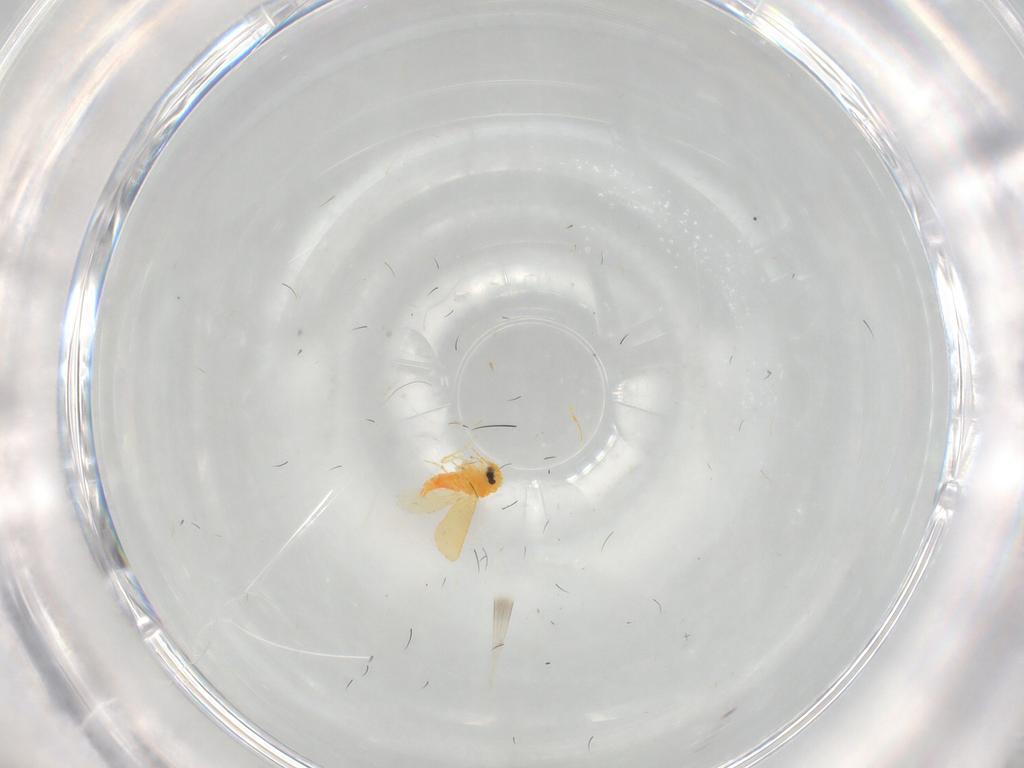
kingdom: Animalia
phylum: Arthropoda
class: Insecta
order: Hemiptera
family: Aleyrodidae
